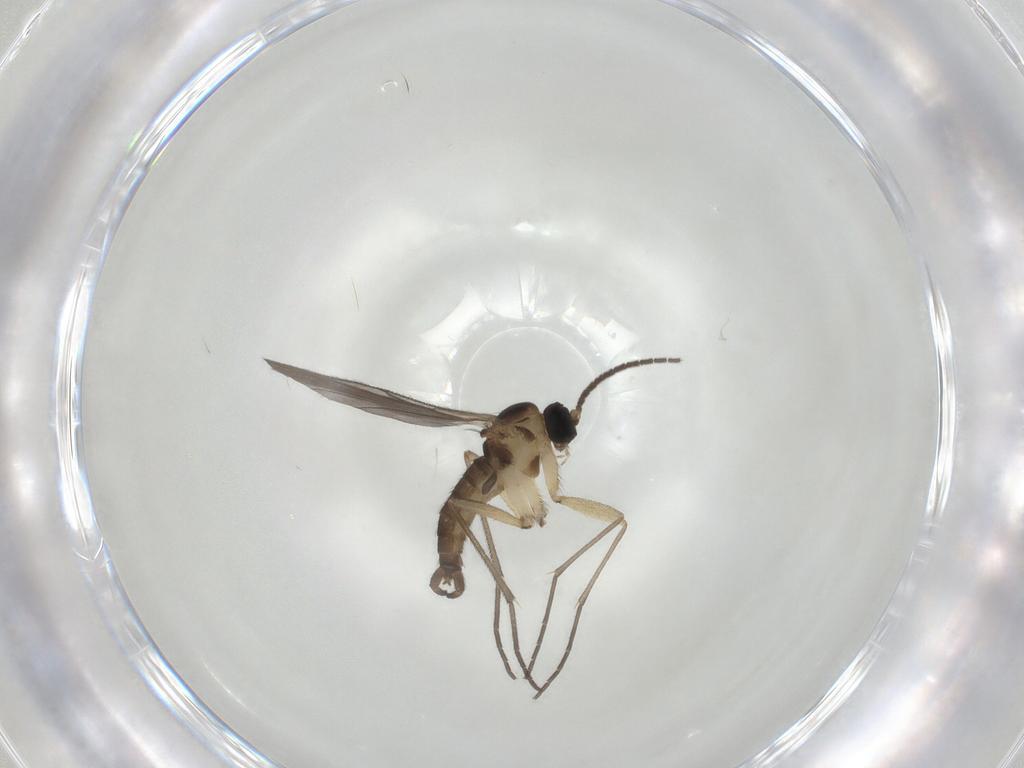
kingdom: Animalia
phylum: Arthropoda
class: Insecta
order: Diptera
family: Sciaridae
